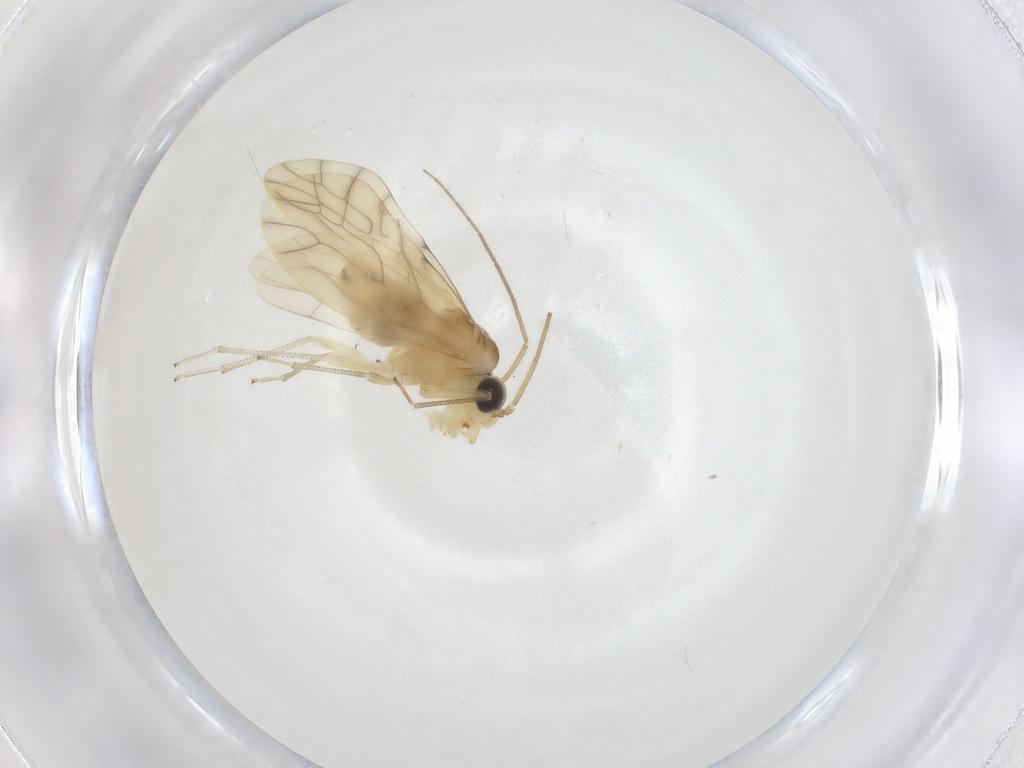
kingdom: Animalia
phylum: Arthropoda
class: Insecta
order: Psocodea
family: Caeciliusidae
